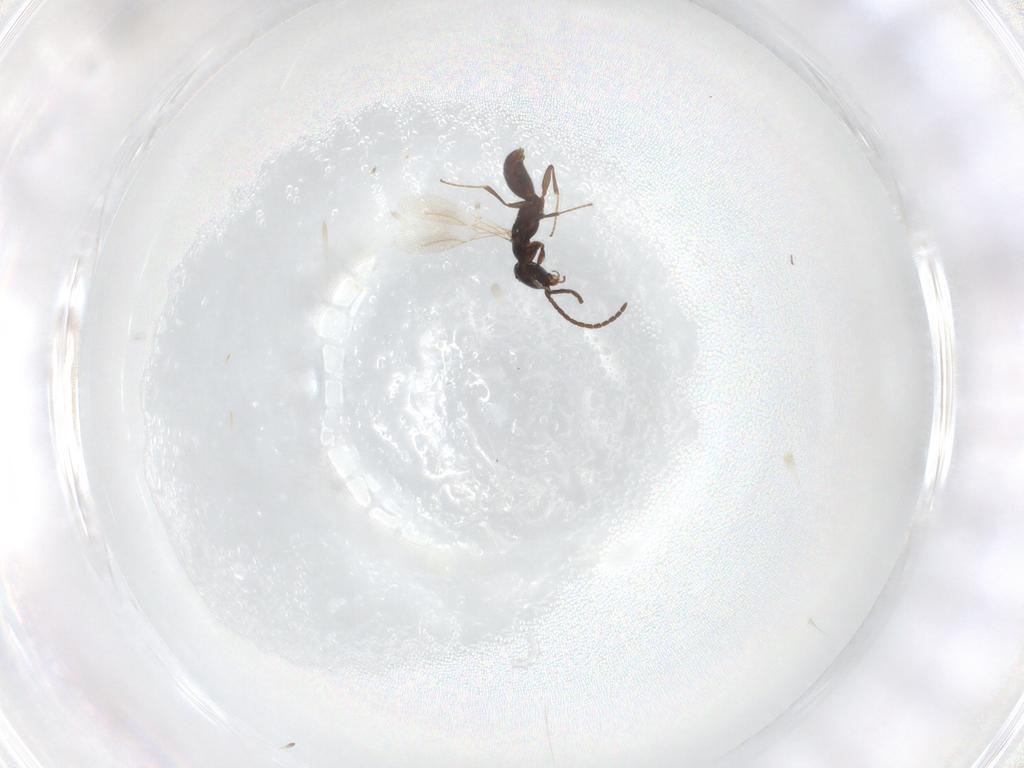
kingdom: Animalia
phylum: Arthropoda
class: Insecta
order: Hymenoptera
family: Bethylidae
